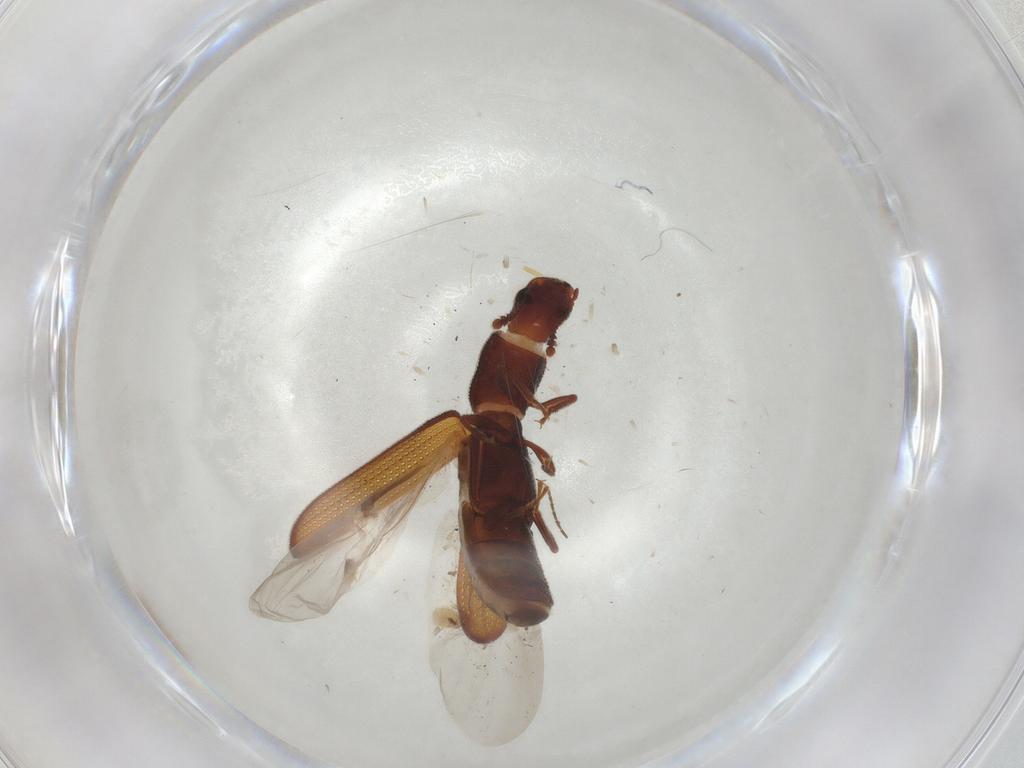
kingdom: Animalia
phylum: Arthropoda
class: Insecta
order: Coleoptera
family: Zopheridae
